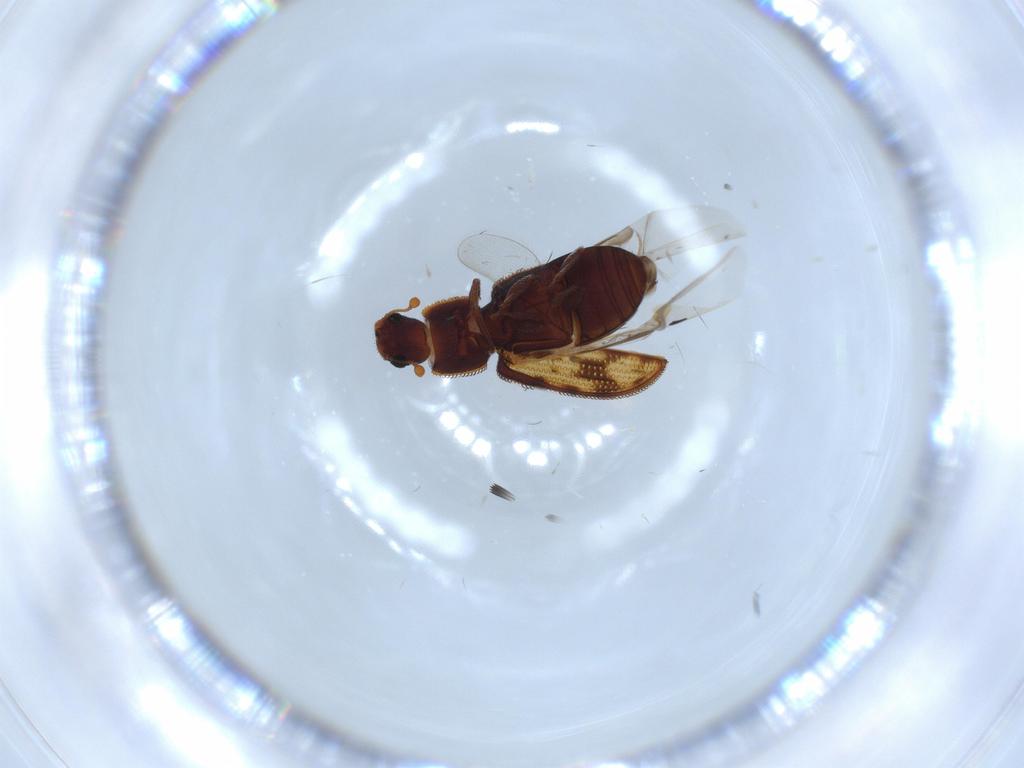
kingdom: Animalia
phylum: Arthropoda
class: Insecta
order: Coleoptera
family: Zopheridae
